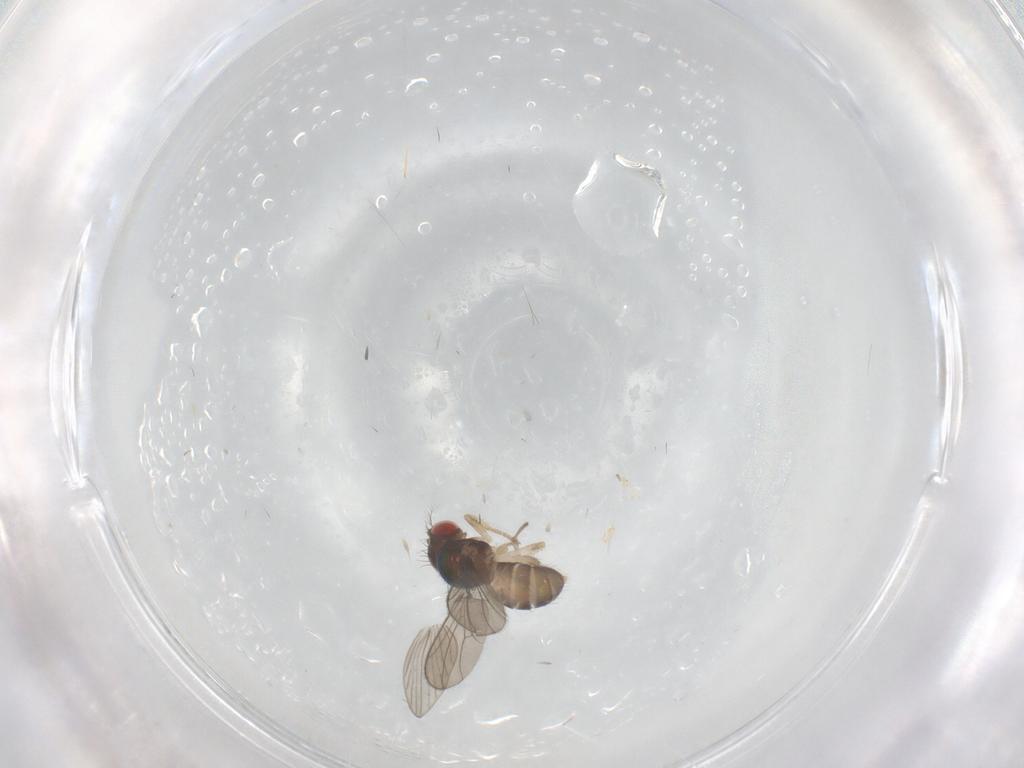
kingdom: Animalia
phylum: Arthropoda
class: Insecta
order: Diptera
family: Drosophilidae
